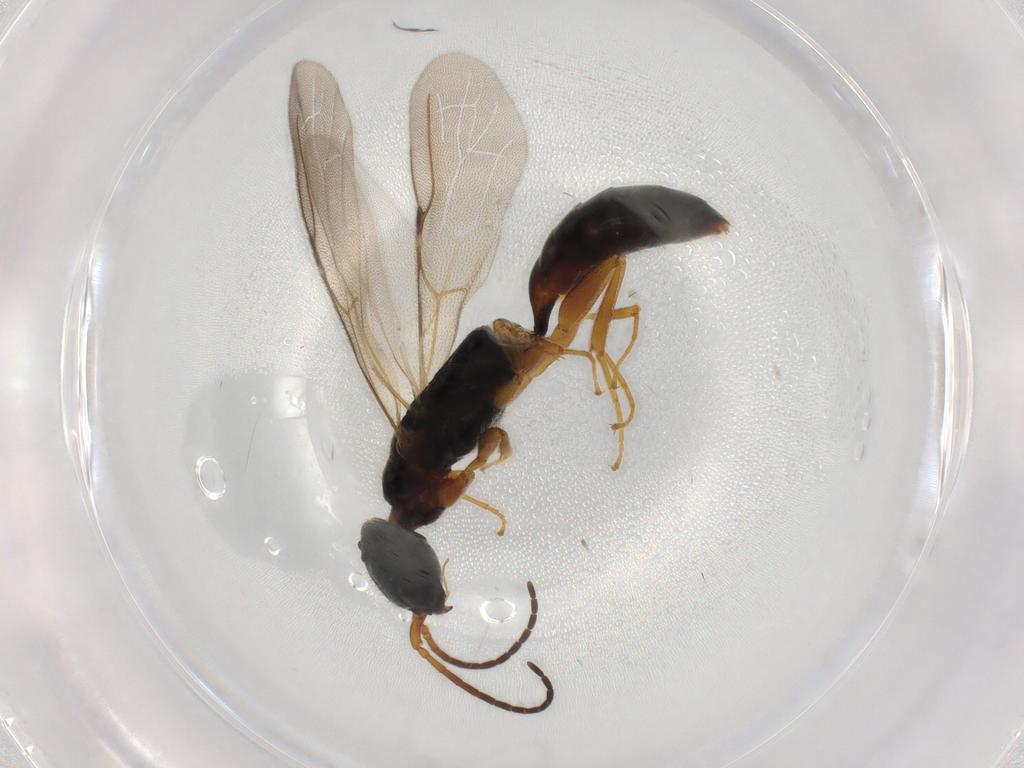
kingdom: Animalia
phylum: Arthropoda
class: Insecta
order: Hymenoptera
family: Bethylidae
